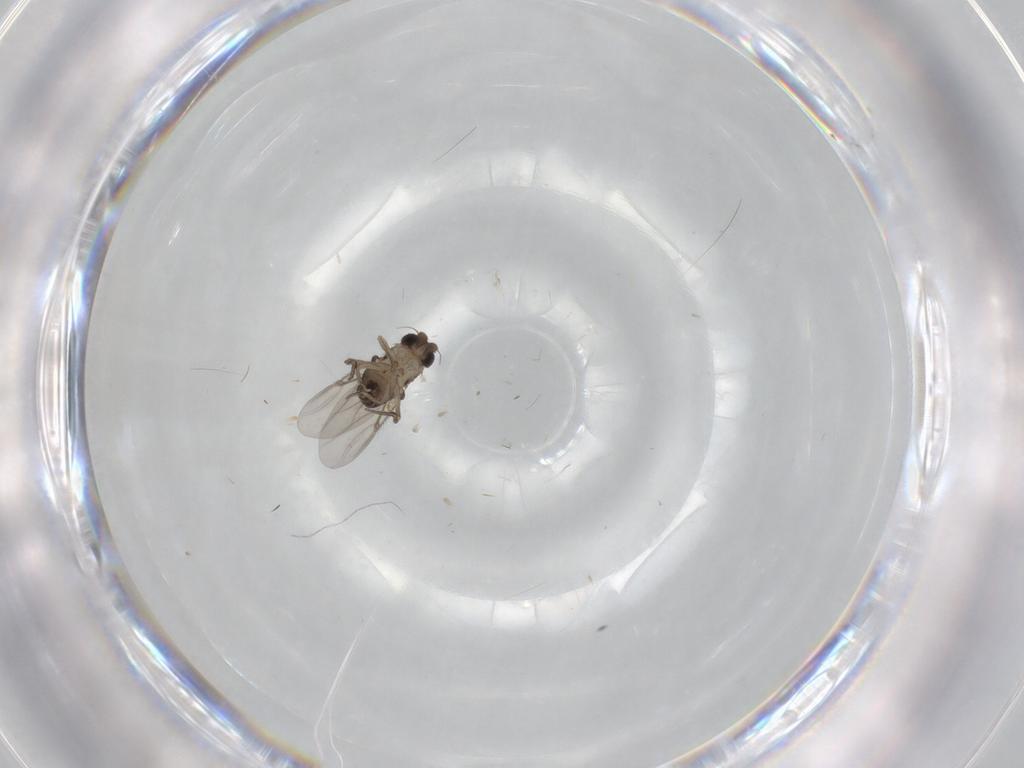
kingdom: Animalia
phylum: Arthropoda
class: Insecta
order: Diptera
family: Phoridae
